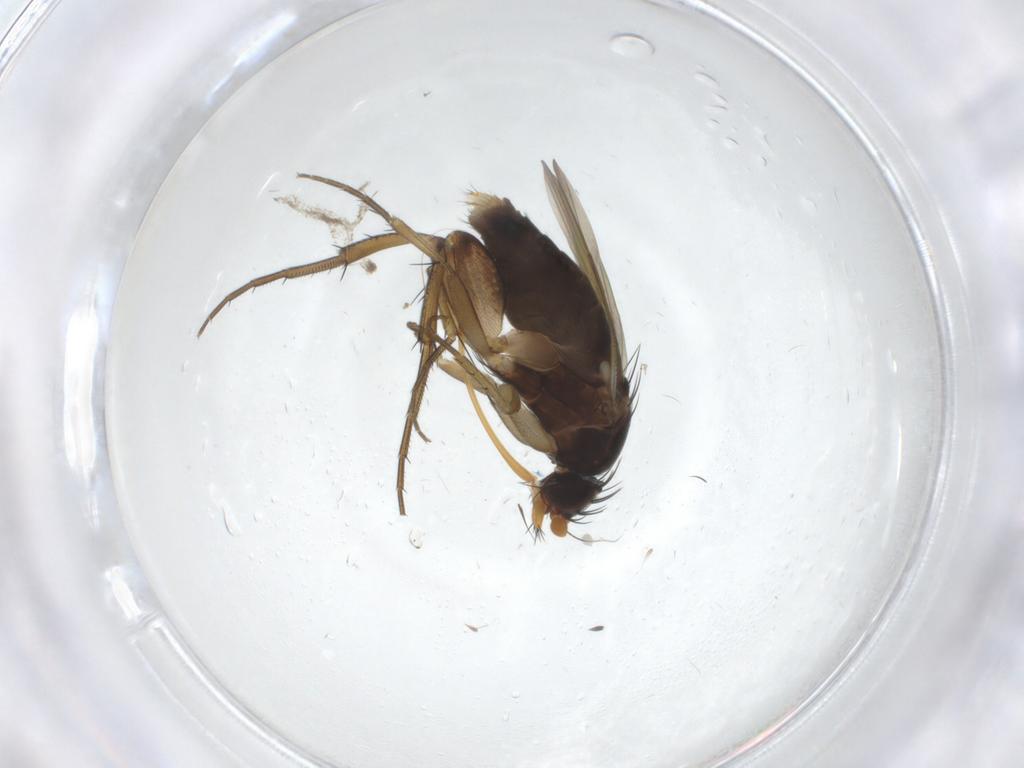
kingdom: Animalia
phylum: Arthropoda
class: Insecta
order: Diptera
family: Phoridae
